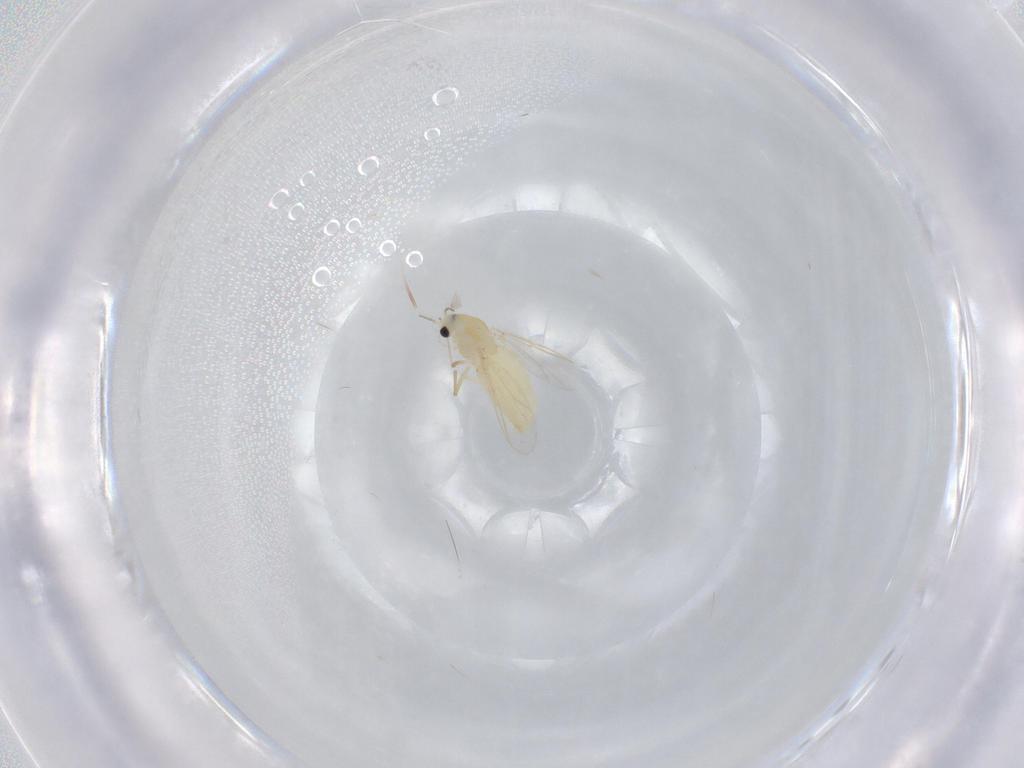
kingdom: Animalia
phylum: Arthropoda
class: Insecta
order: Diptera
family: Chironomidae
